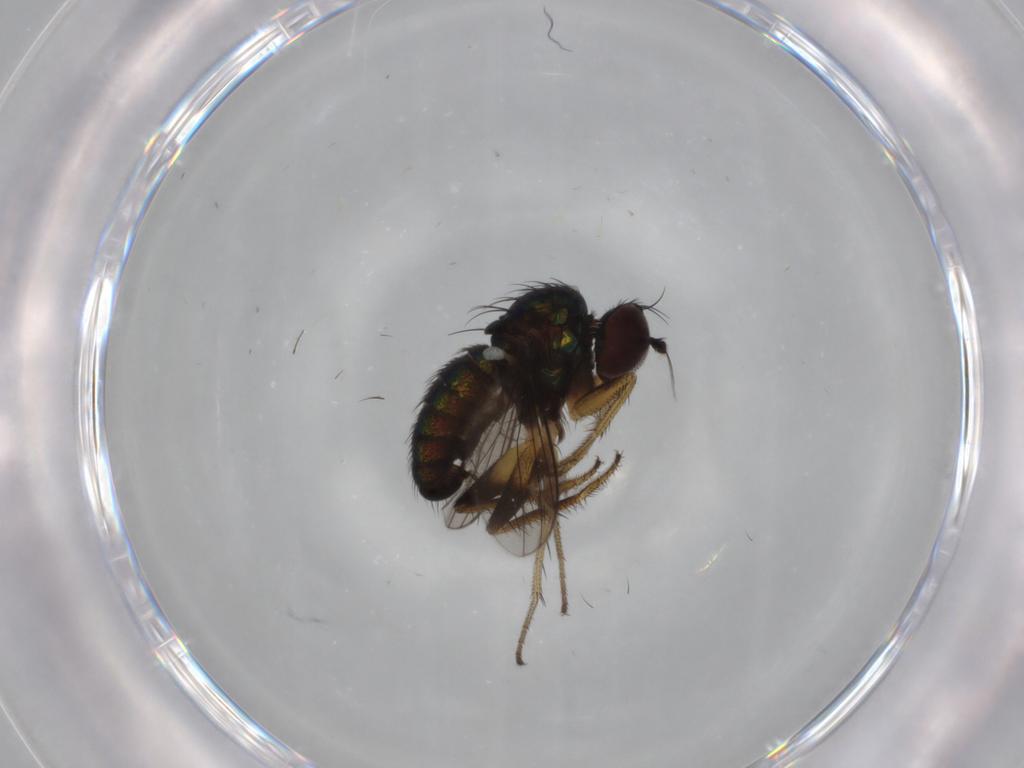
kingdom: Animalia
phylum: Arthropoda
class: Insecta
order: Diptera
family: Dolichopodidae
